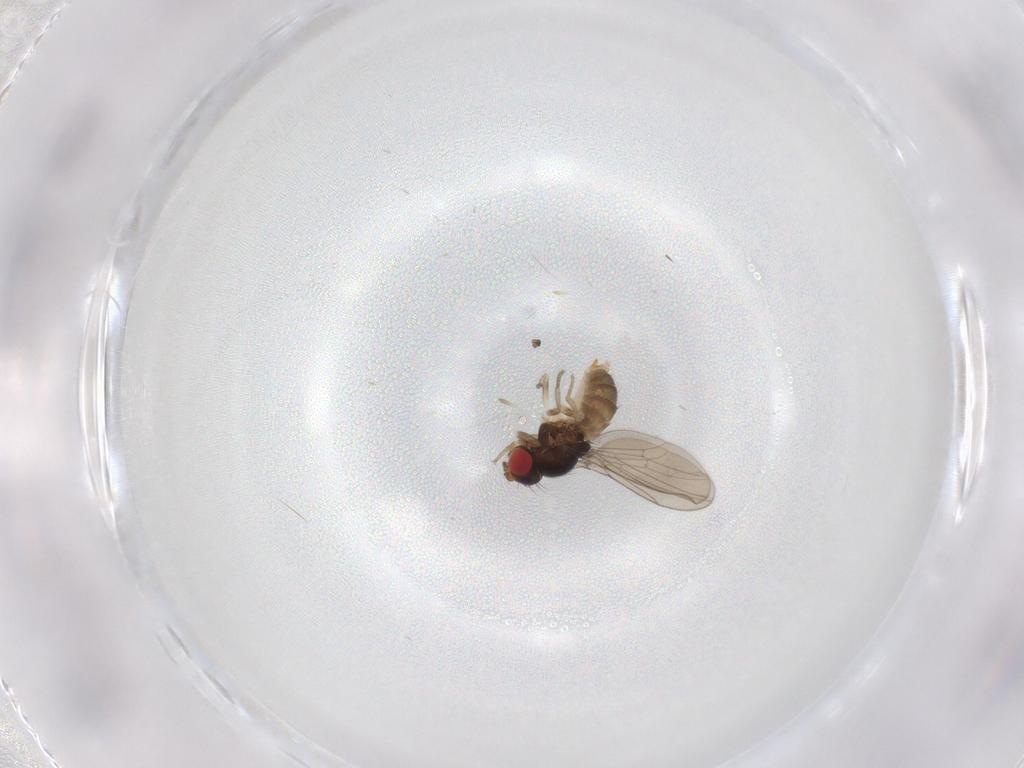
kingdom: Animalia
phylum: Arthropoda
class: Insecta
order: Diptera
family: Drosophilidae
